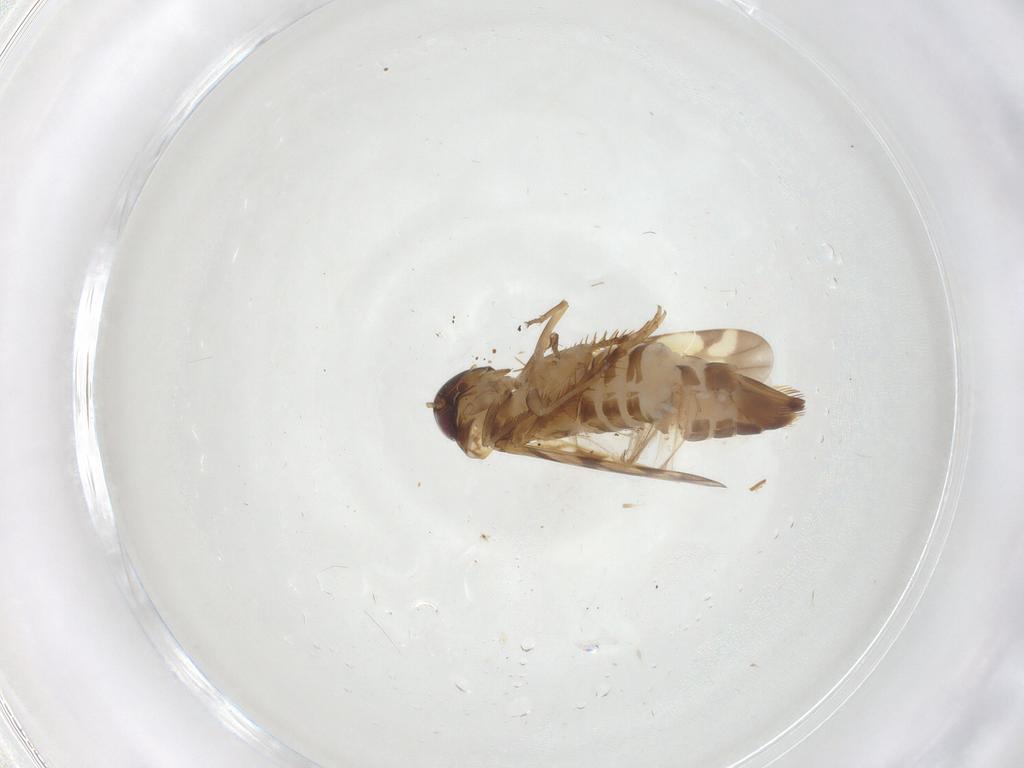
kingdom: Animalia
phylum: Arthropoda
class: Insecta
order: Hemiptera
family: Cicadellidae
